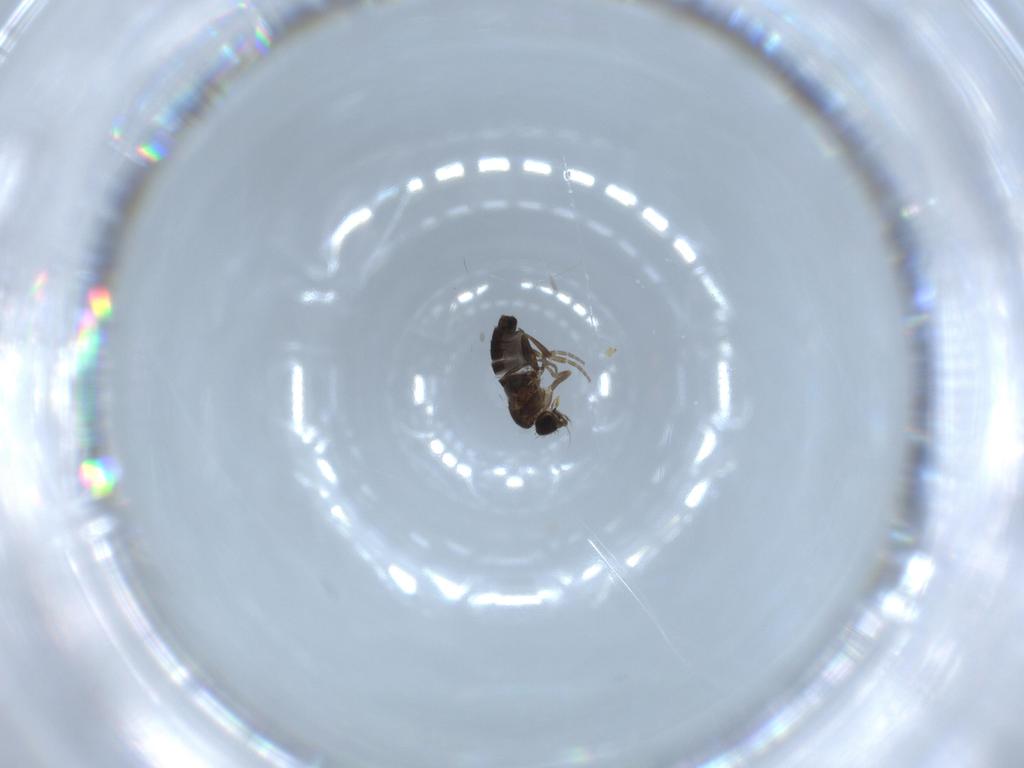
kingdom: Animalia
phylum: Arthropoda
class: Insecta
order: Diptera
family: Phoridae
